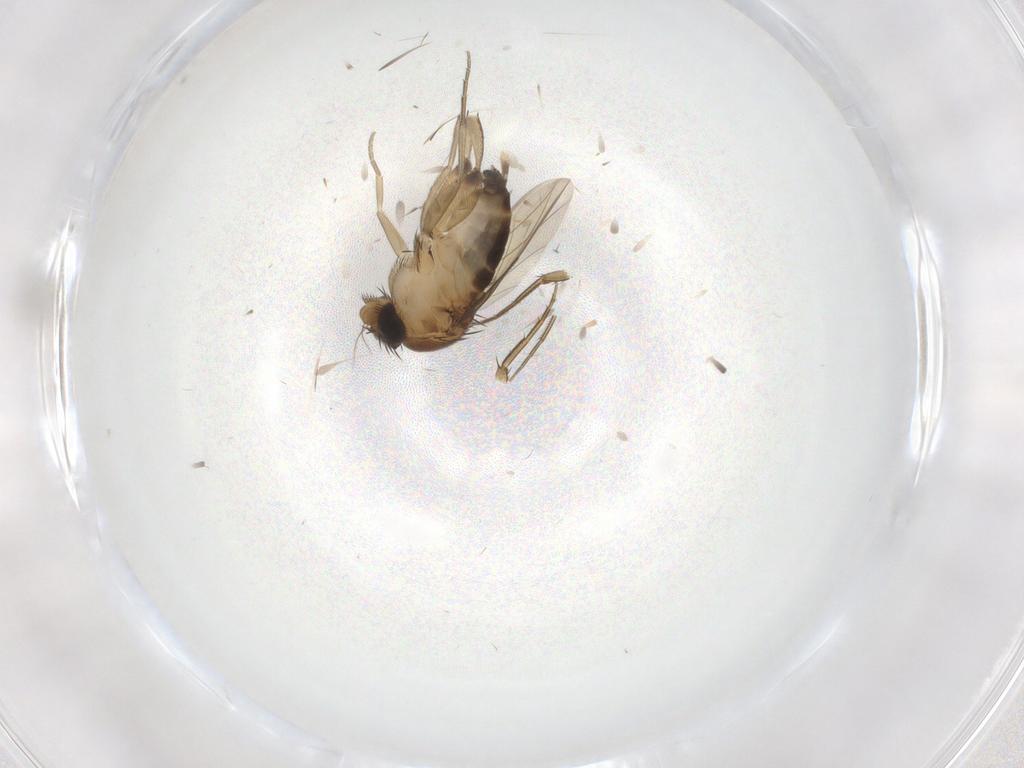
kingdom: Animalia
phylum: Arthropoda
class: Insecta
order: Diptera
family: Phoridae
